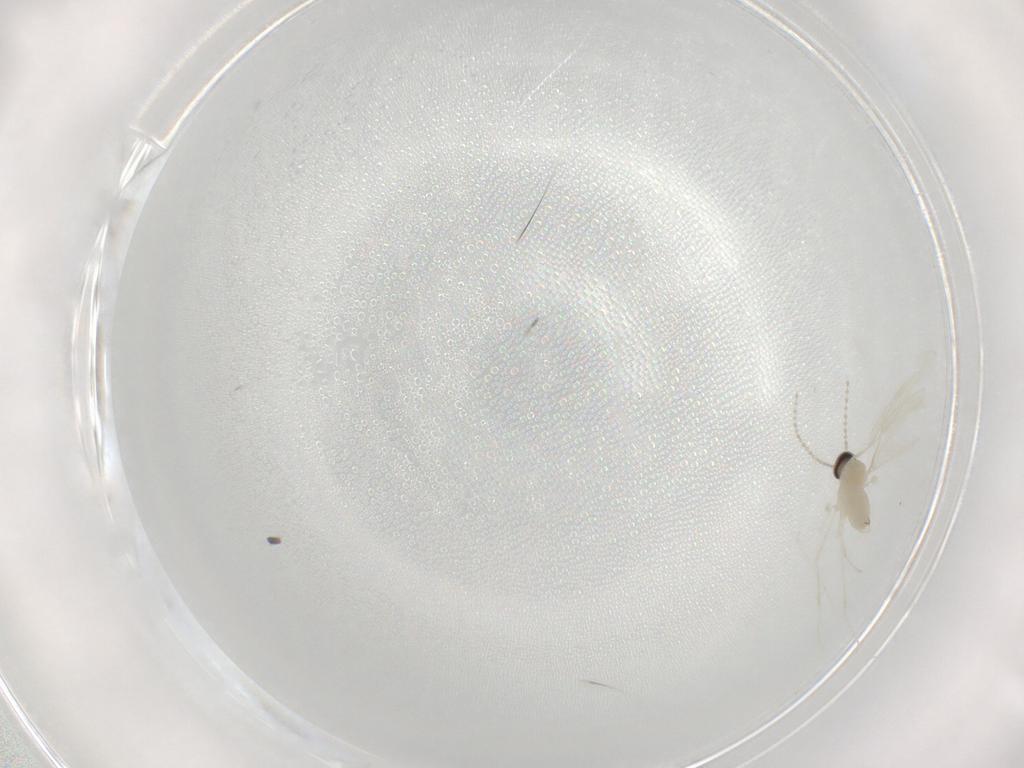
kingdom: Animalia
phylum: Arthropoda
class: Insecta
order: Diptera
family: Cecidomyiidae
